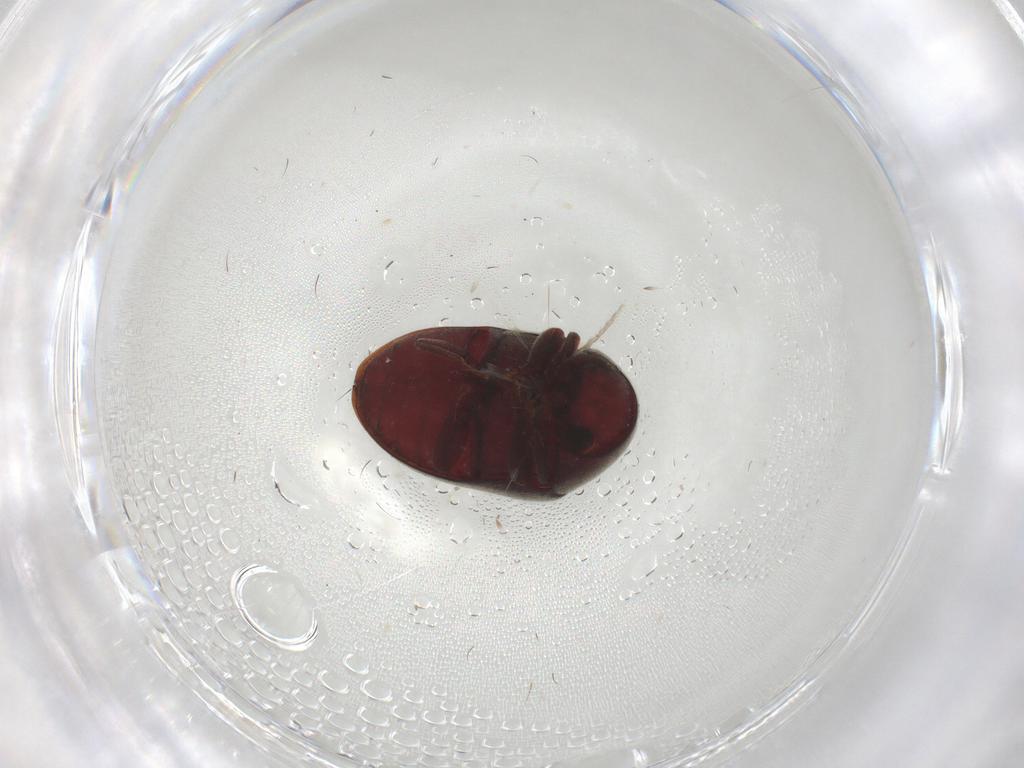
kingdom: Animalia
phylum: Arthropoda
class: Insecta
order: Coleoptera
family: Anobiidae
